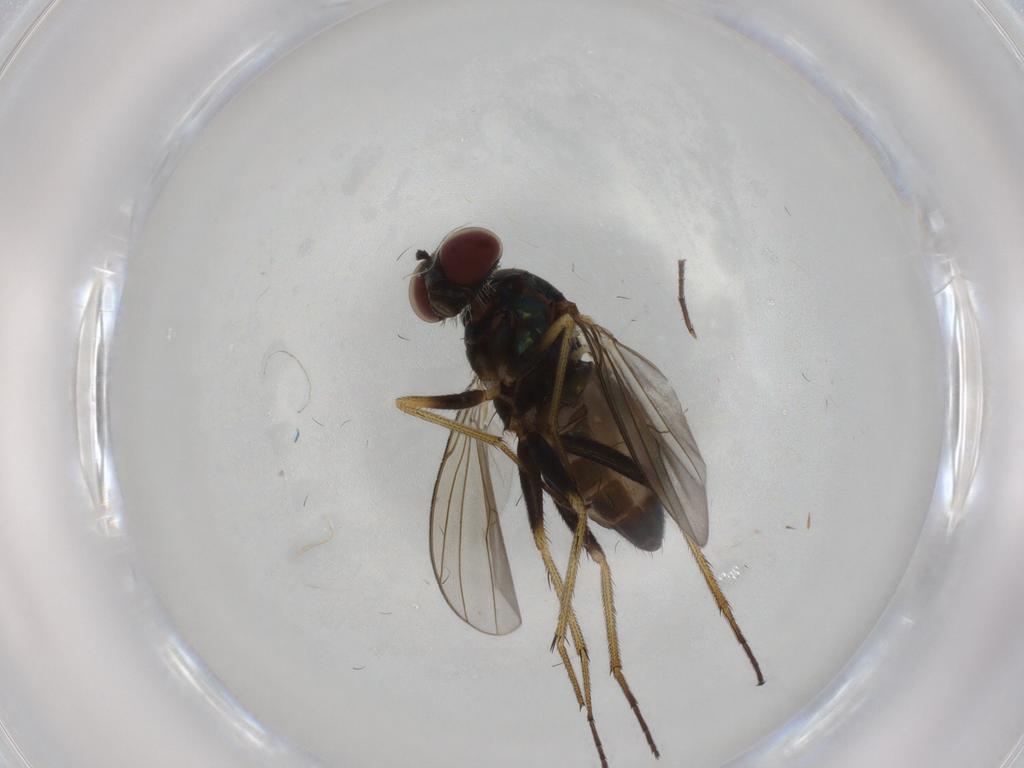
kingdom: Animalia
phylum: Arthropoda
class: Insecta
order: Diptera
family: Dolichopodidae
